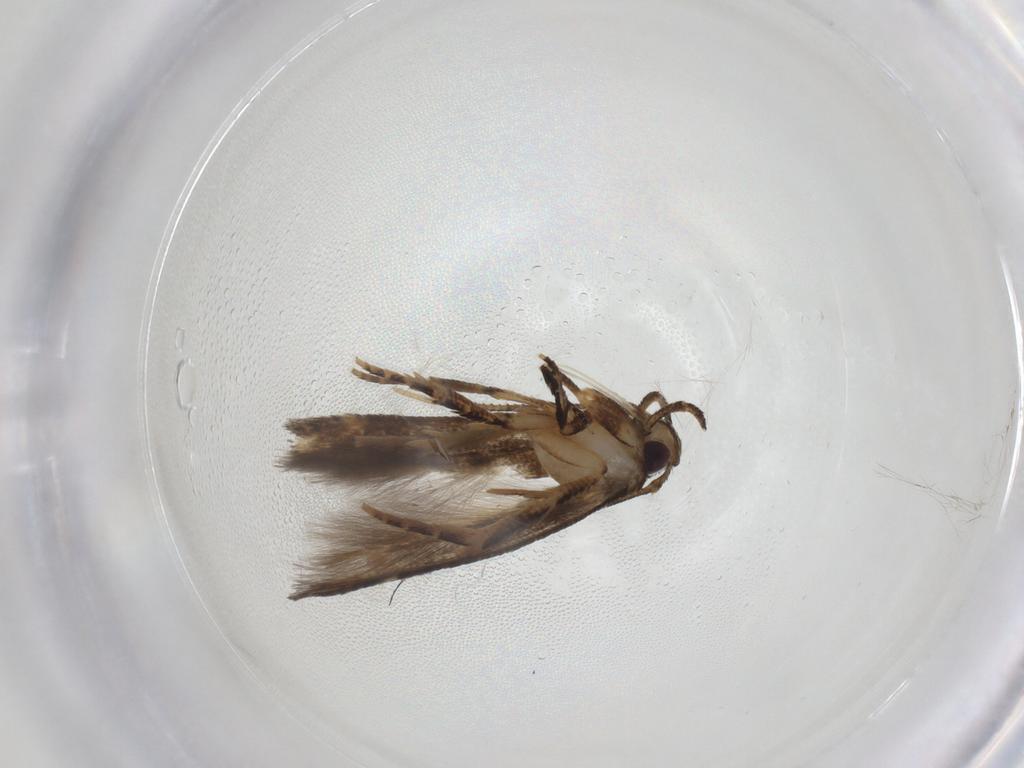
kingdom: Animalia
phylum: Arthropoda
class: Insecta
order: Lepidoptera
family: Cosmopterigidae
